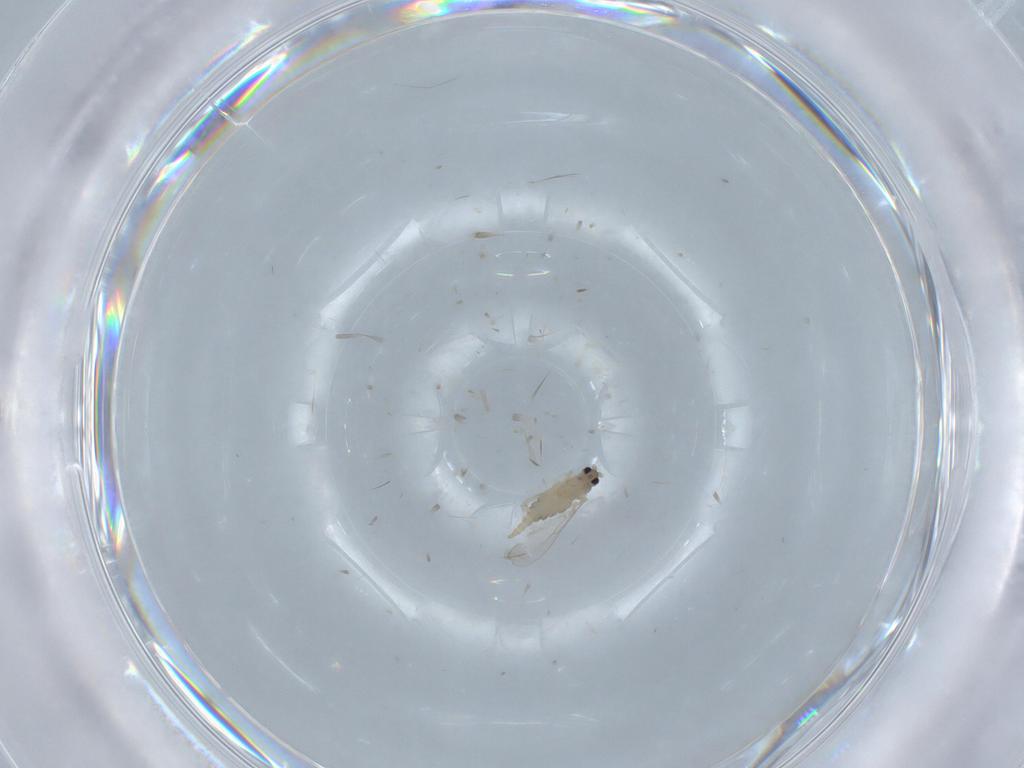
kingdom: Animalia
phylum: Arthropoda
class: Insecta
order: Diptera
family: Cecidomyiidae
